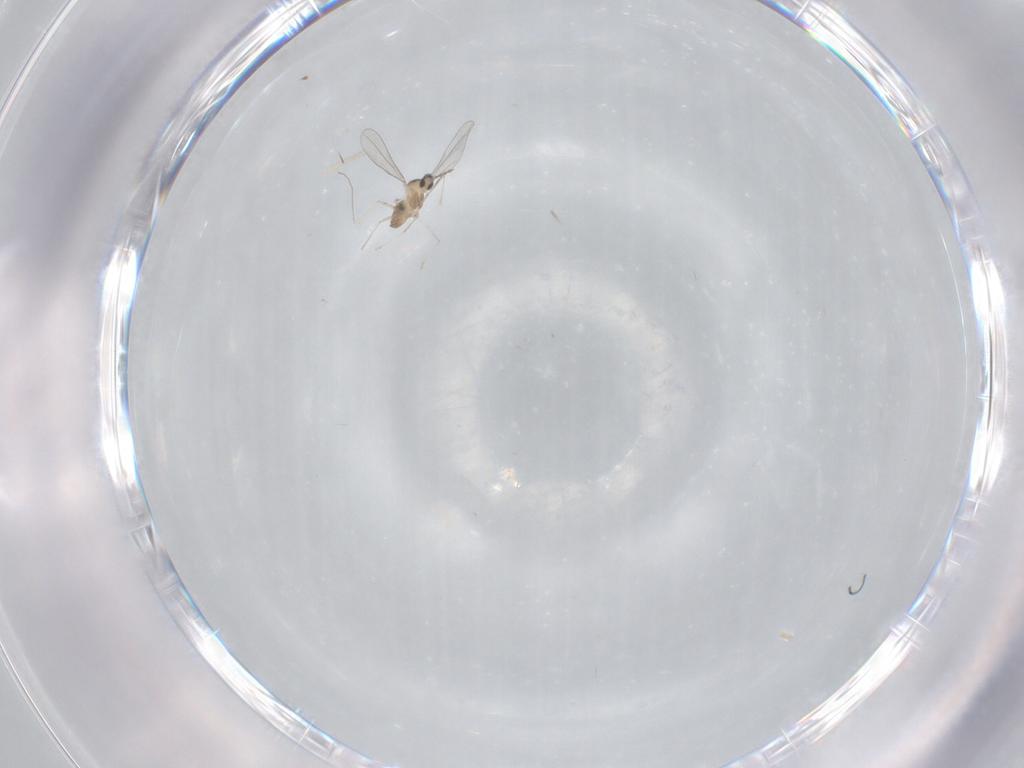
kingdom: Animalia
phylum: Arthropoda
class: Insecta
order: Diptera
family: Cecidomyiidae
